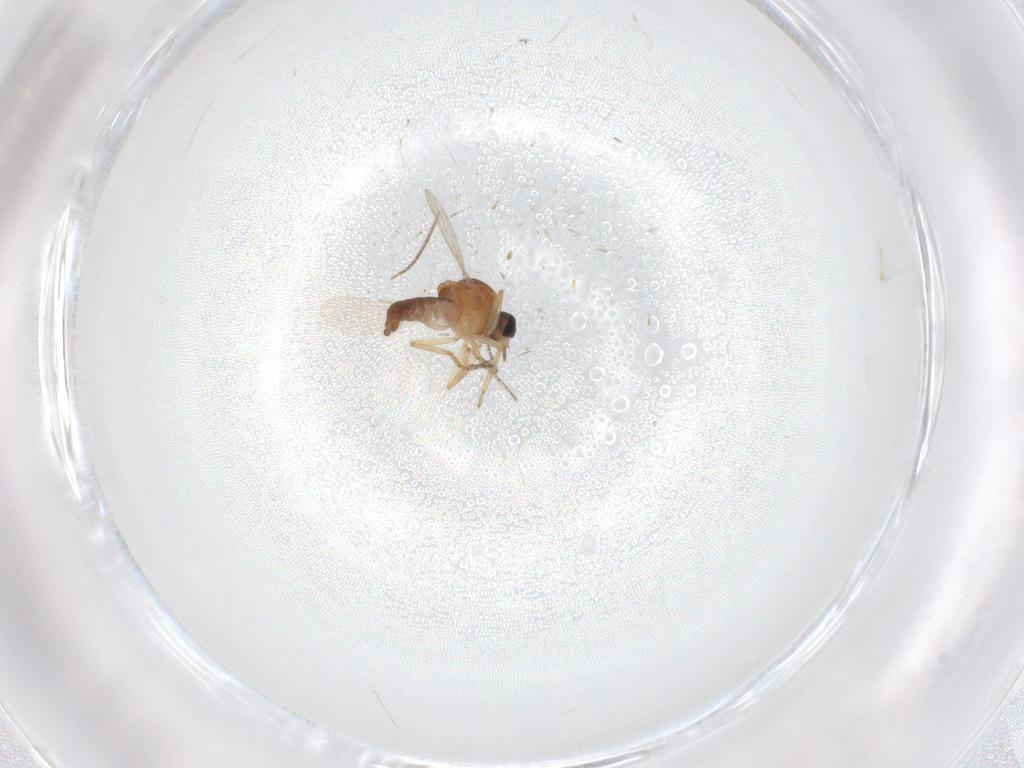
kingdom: Animalia
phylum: Arthropoda
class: Insecta
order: Diptera
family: Ceratopogonidae
